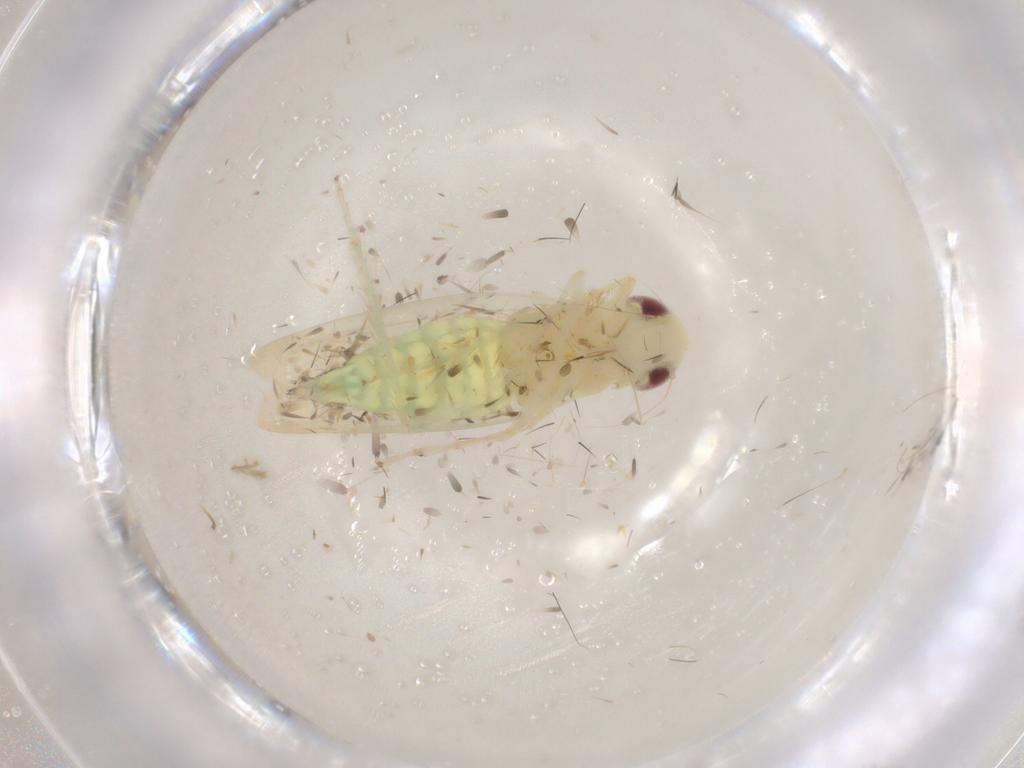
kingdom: Animalia
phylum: Arthropoda
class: Insecta
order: Hemiptera
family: Cicadellidae
